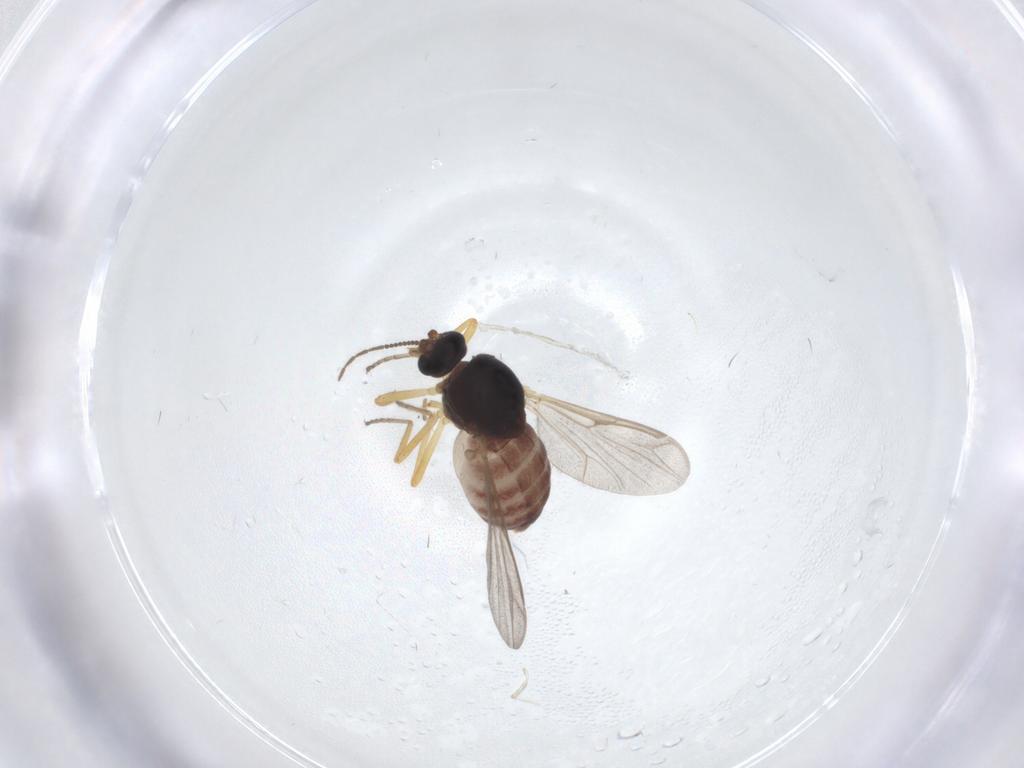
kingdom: Animalia
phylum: Arthropoda
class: Insecta
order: Diptera
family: Ceratopogonidae
